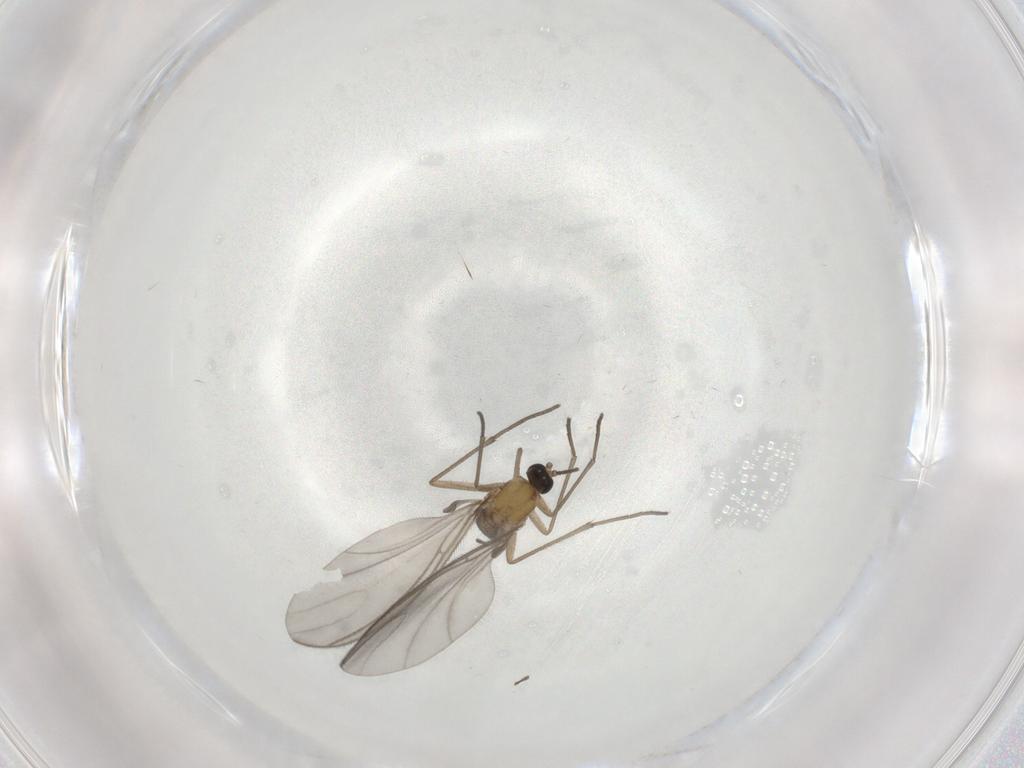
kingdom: Animalia
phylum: Arthropoda
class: Insecta
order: Diptera
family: Sciaridae
